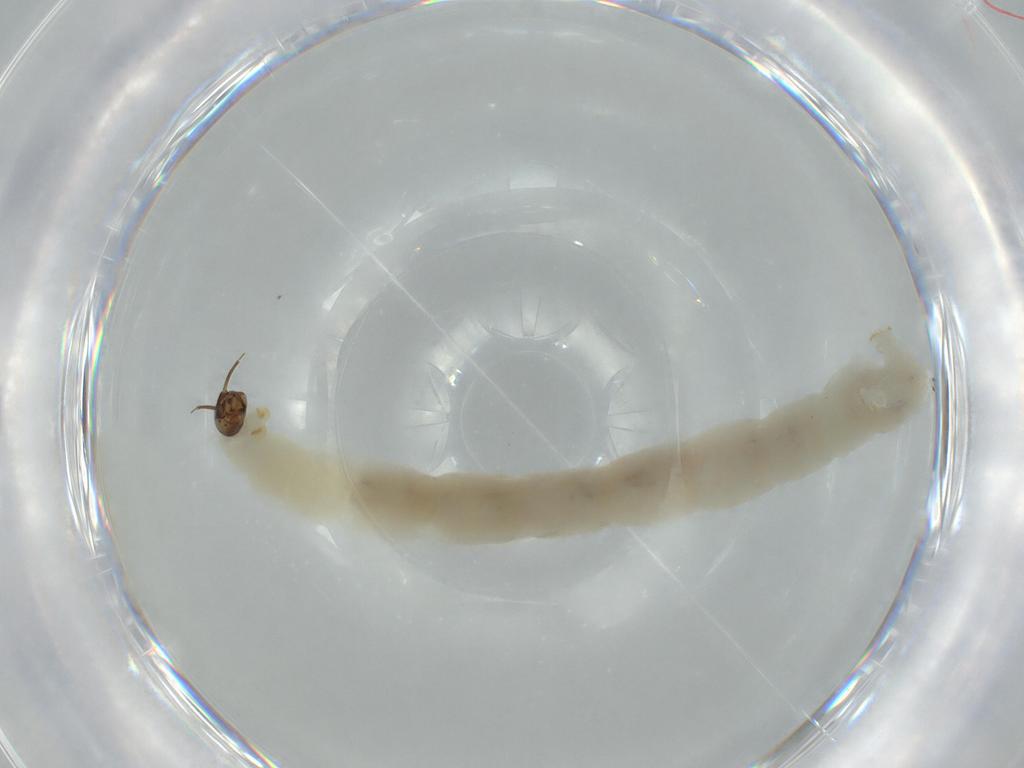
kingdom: Animalia
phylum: Arthropoda
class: Insecta
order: Diptera
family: Chironomidae
